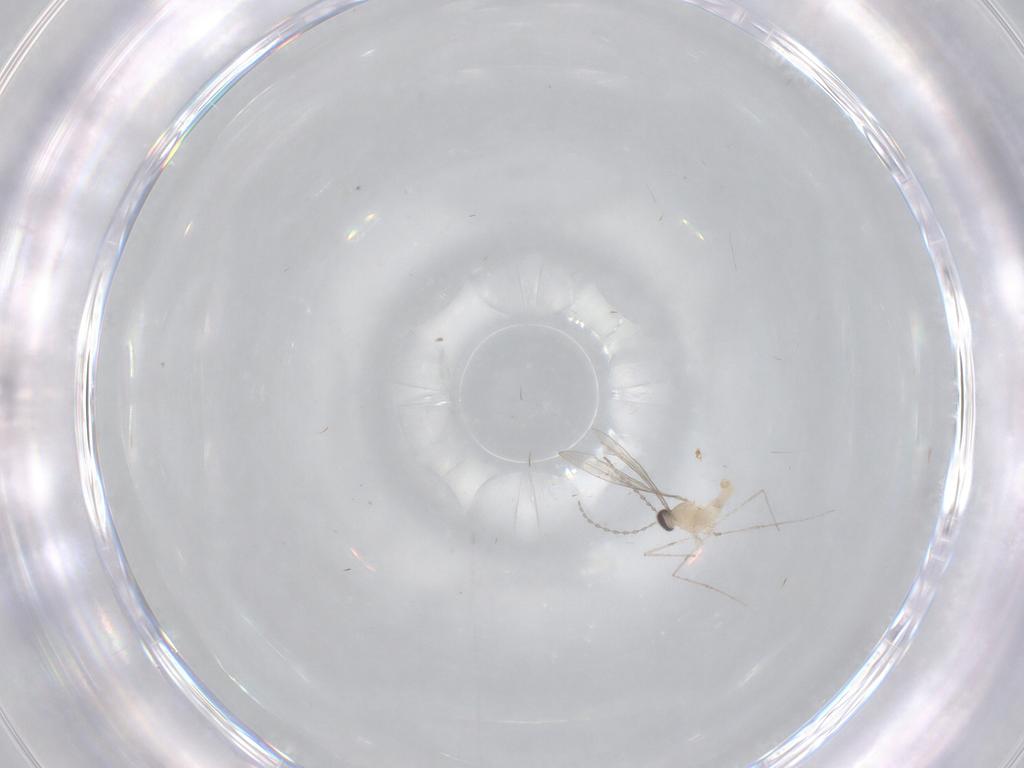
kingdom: Animalia
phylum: Arthropoda
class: Insecta
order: Diptera
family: Cecidomyiidae
